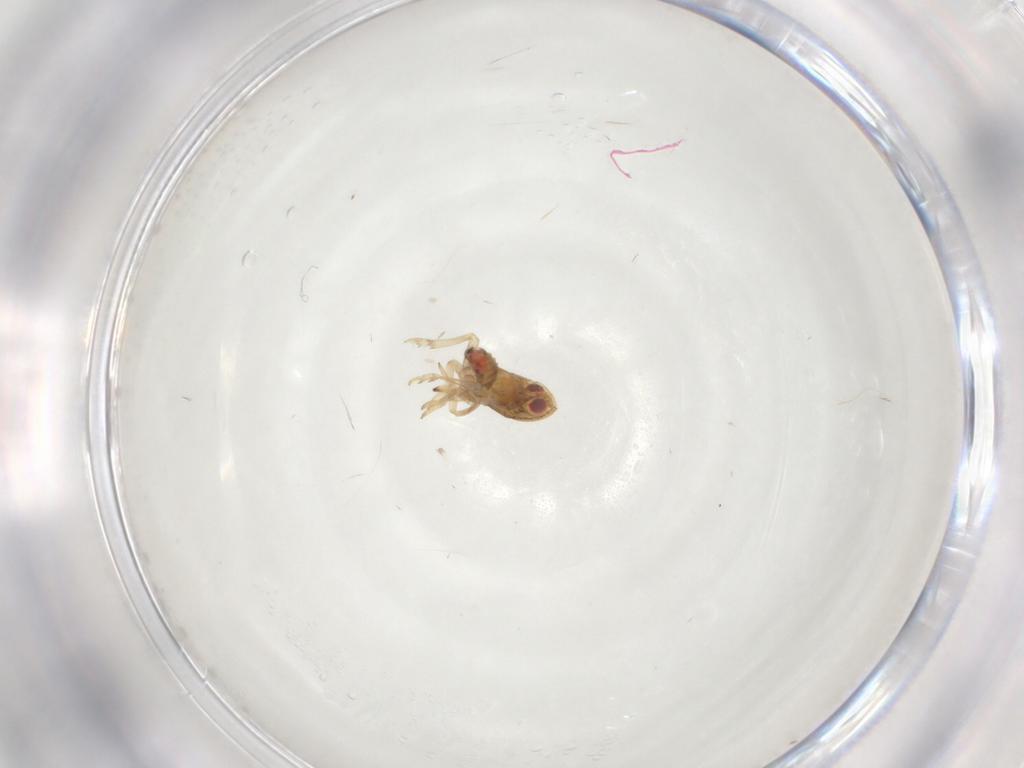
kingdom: Animalia
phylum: Arthropoda
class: Insecta
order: Hemiptera
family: Tropiduchidae
